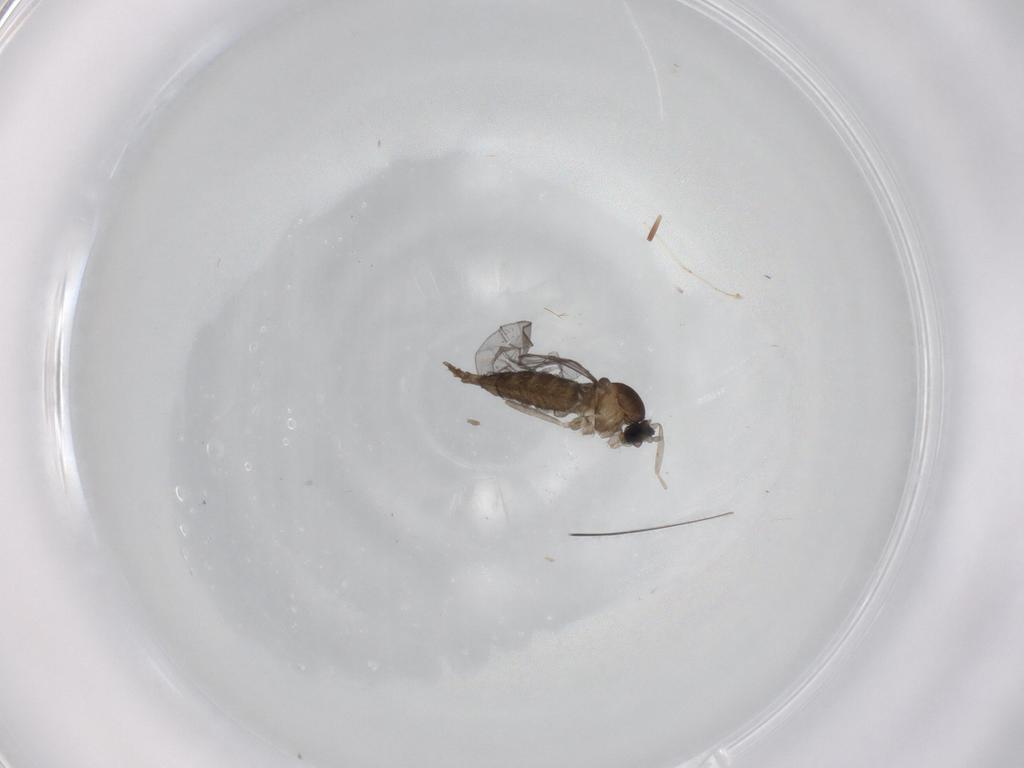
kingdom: Animalia
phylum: Arthropoda
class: Insecta
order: Diptera
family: Cecidomyiidae
